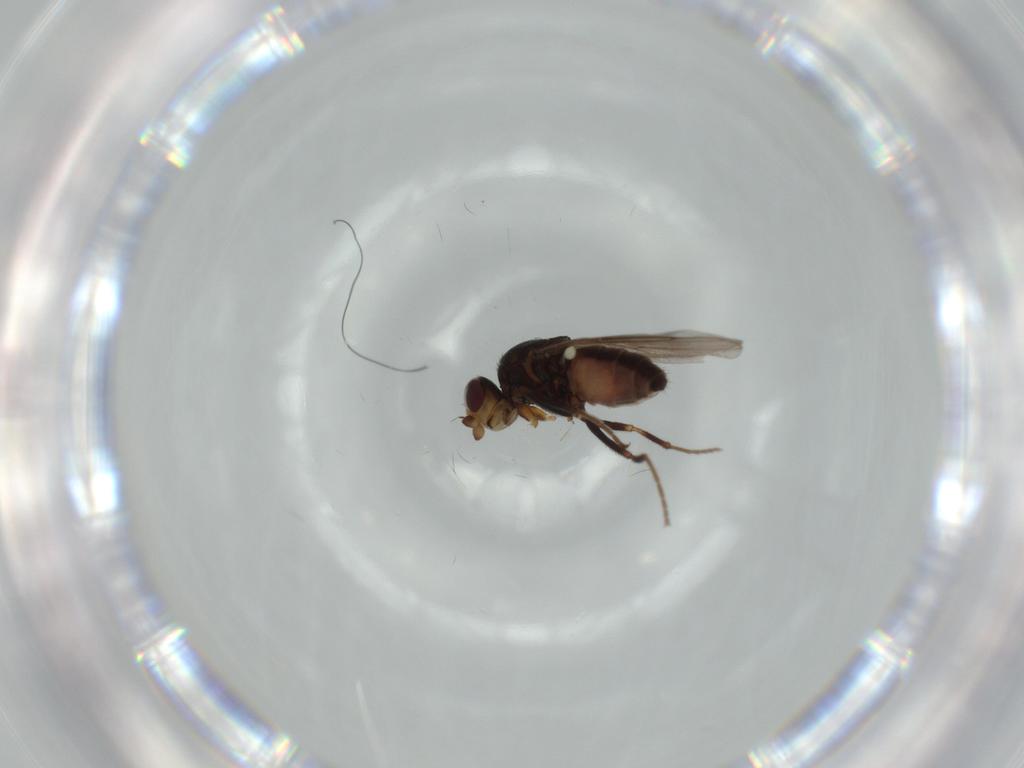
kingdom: Animalia
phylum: Arthropoda
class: Insecta
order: Diptera
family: Chloropidae
